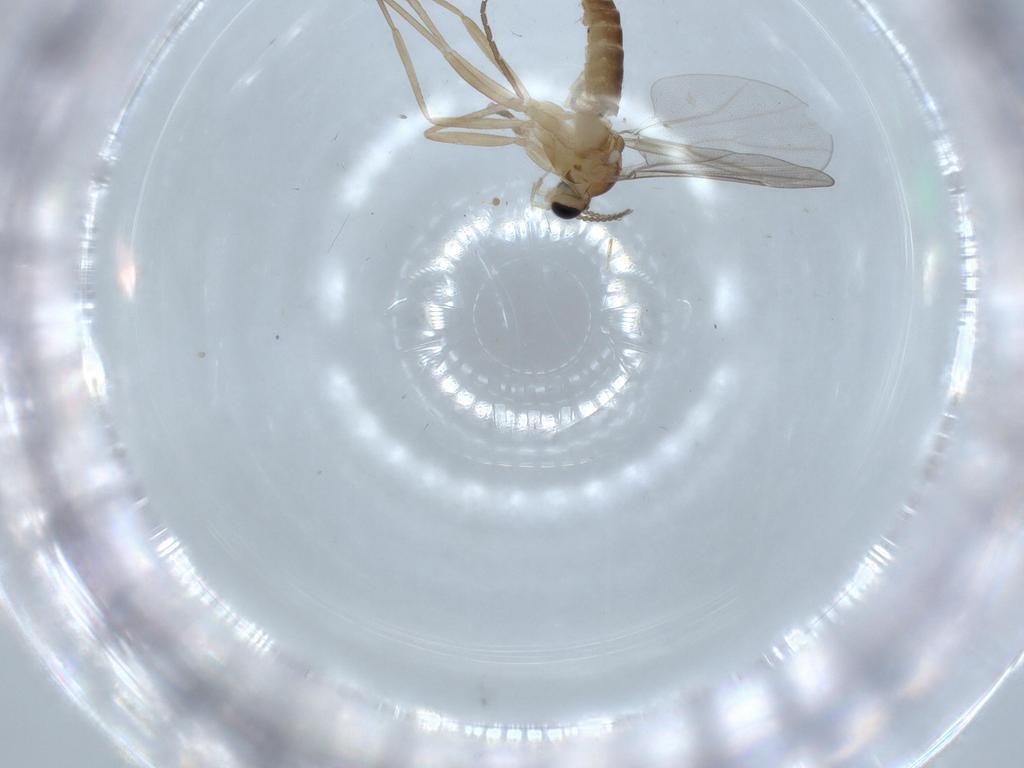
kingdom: Animalia
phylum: Arthropoda
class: Insecta
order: Diptera
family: Cecidomyiidae
